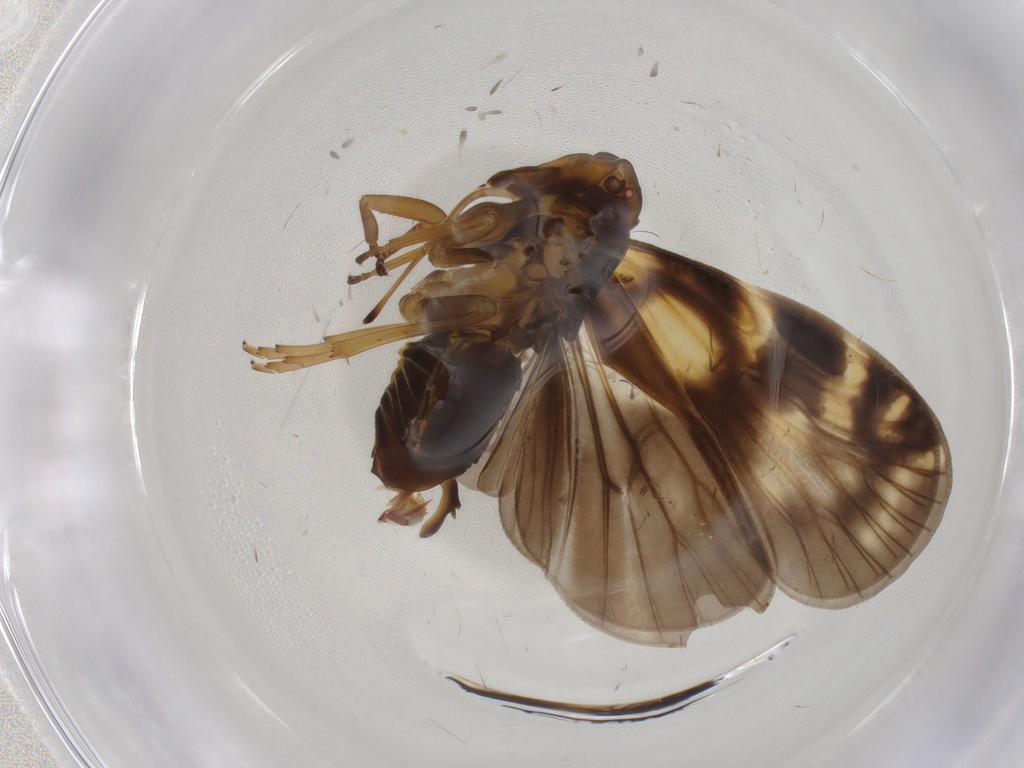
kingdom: Animalia
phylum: Arthropoda
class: Insecta
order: Hemiptera
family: Cixiidae
